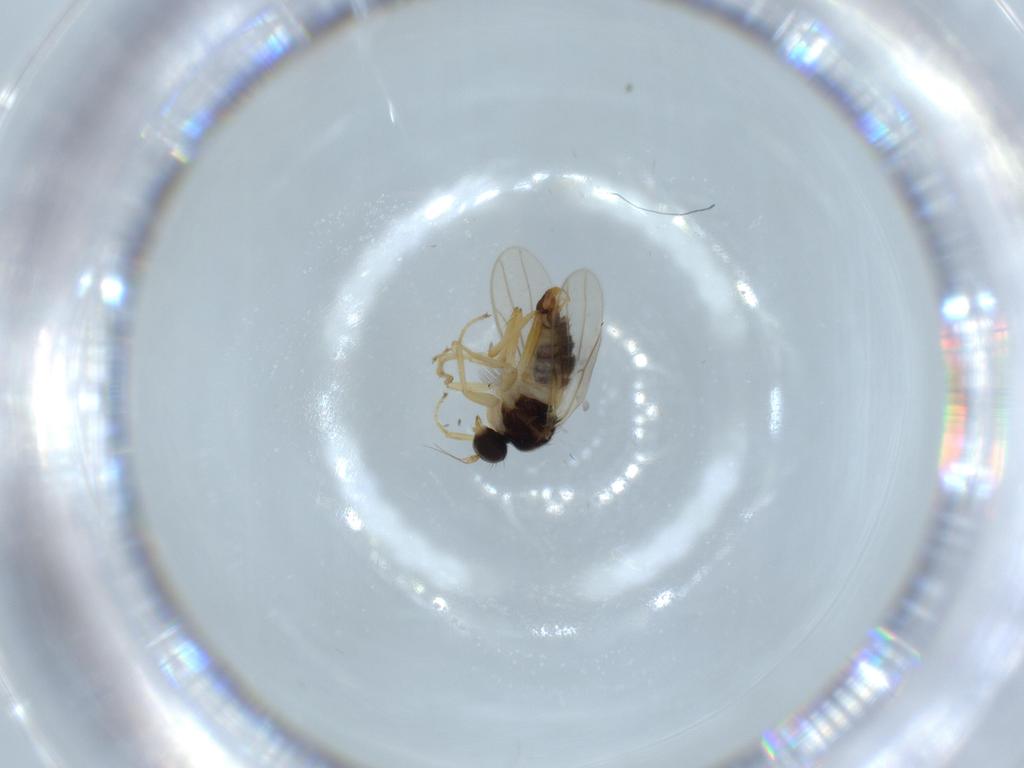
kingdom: Animalia
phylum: Arthropoda
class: Insecta
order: Diptera
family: Hybotidae
